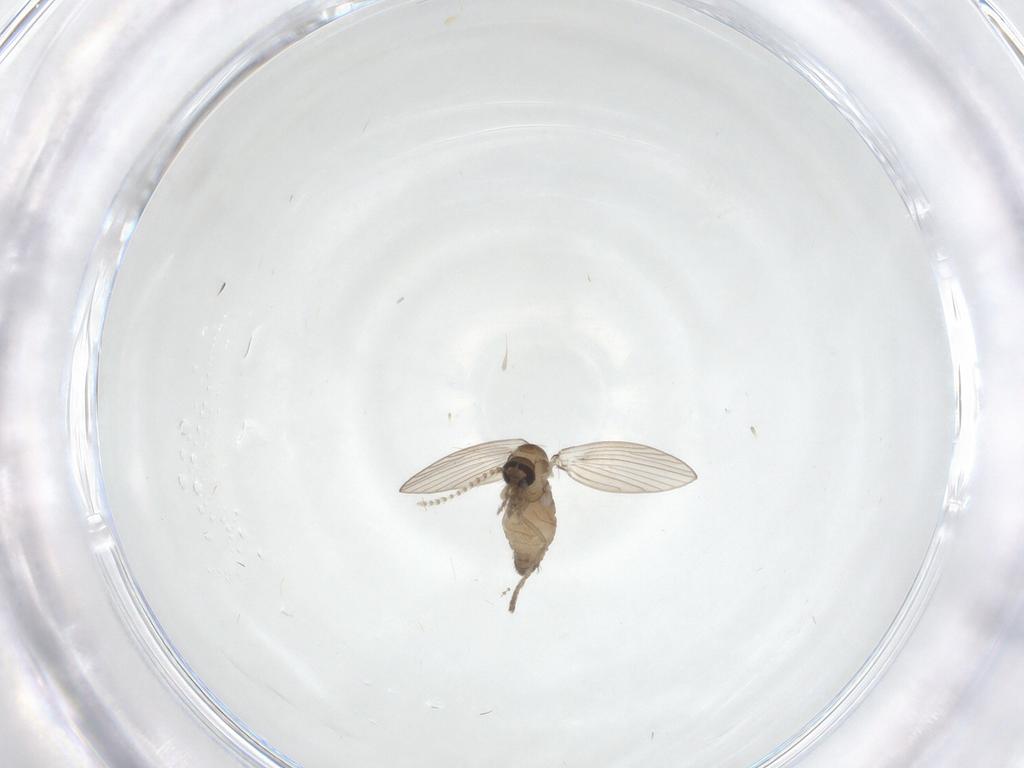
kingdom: Animalia
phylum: Arthropoda
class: Insecta
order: Diptera
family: Psychodidae
